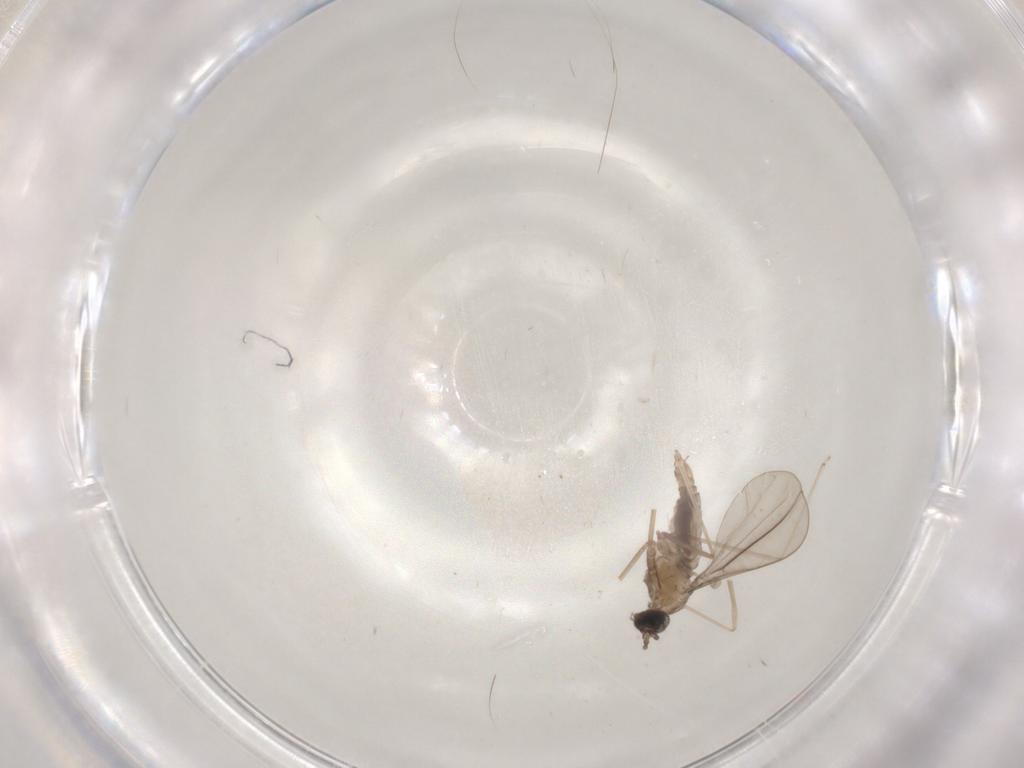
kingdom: Animalia
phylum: Arthropoda
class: Insecta
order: Diptera
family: Cecidomyiidae
